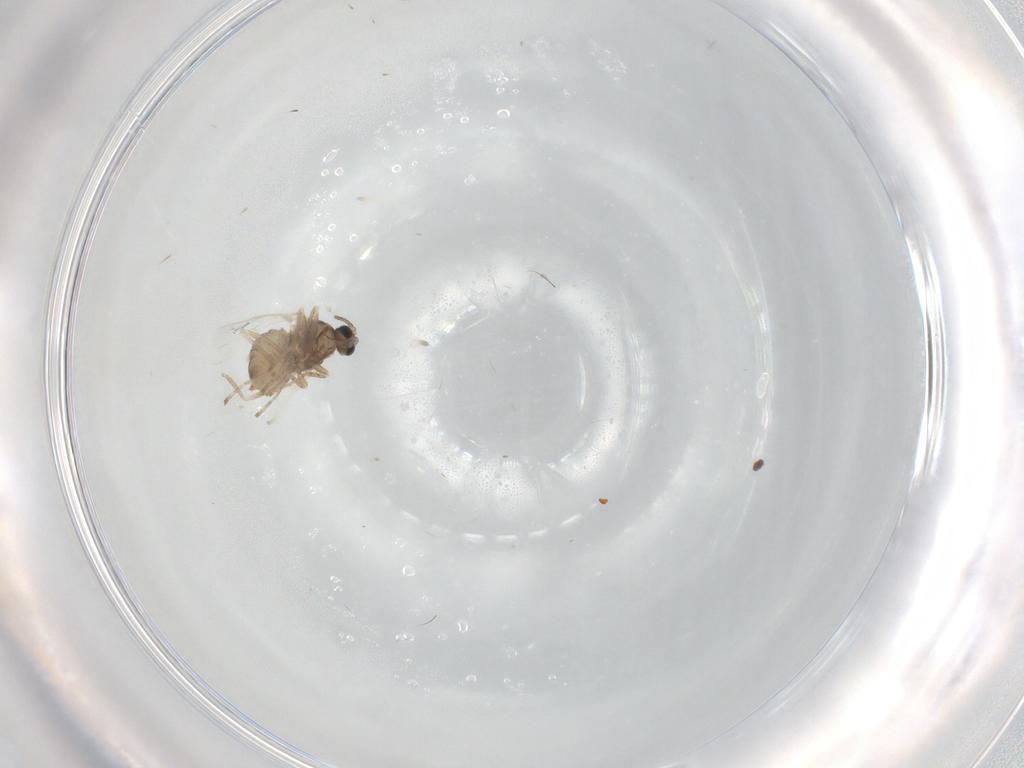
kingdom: Animalia
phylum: Arthropoda
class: Insecta
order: Diptera
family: Cecidomyiidae
